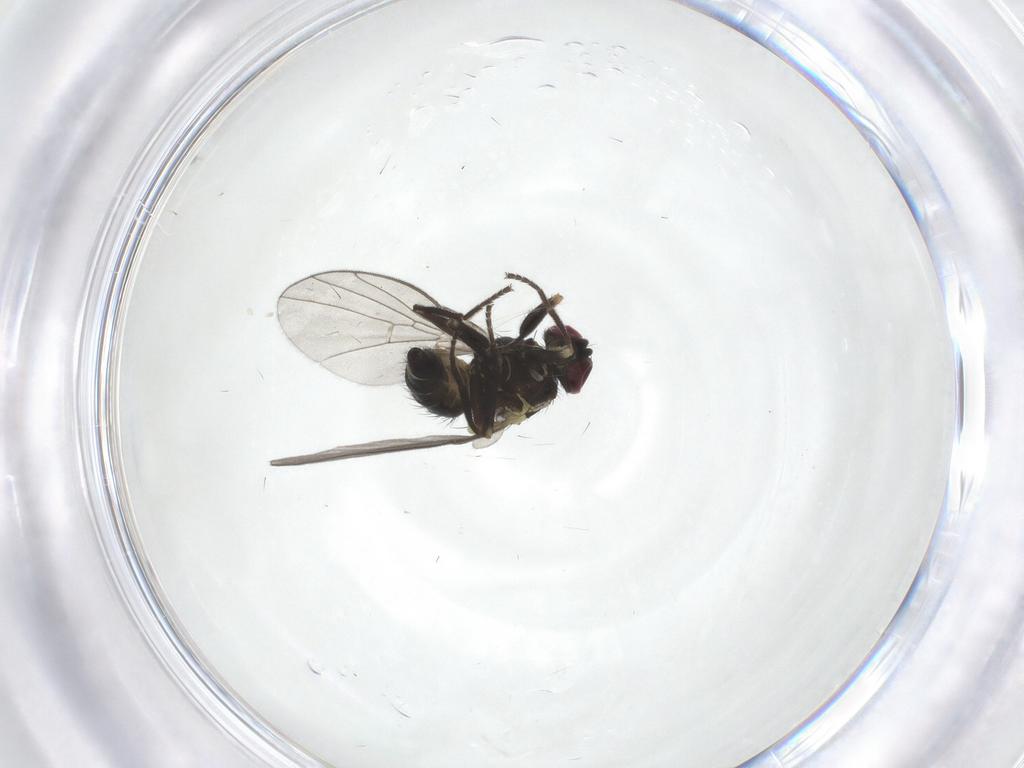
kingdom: Animalia
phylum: Arthropoda
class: Insecta
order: Diptera
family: Agromyzidae
